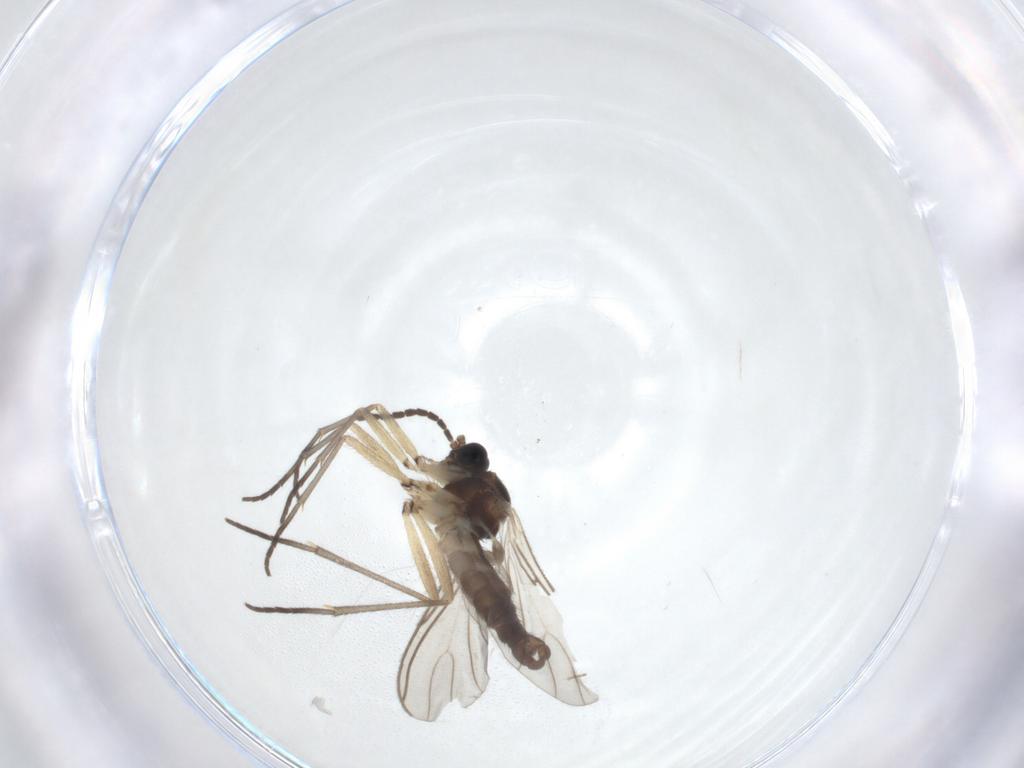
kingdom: Animalia
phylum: Arthropoda
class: Insecta
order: Diptera
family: Sciaridae
